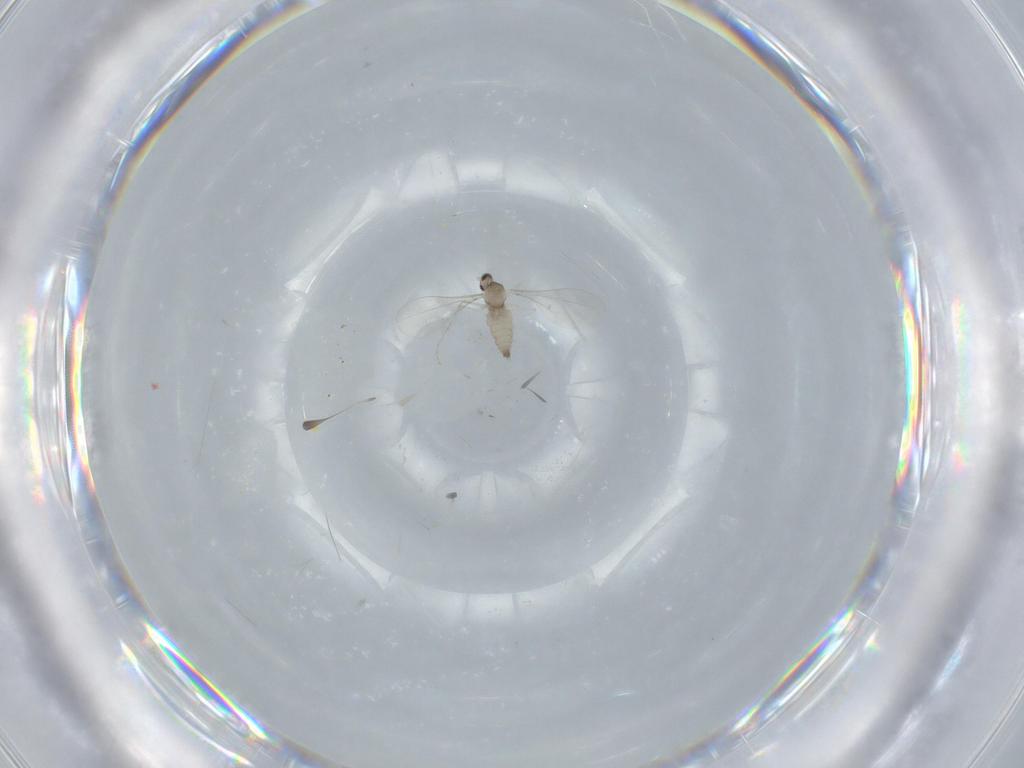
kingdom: Animalia
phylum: Arthropoda
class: Insecta
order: Diptera
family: Cecidomyiidae
